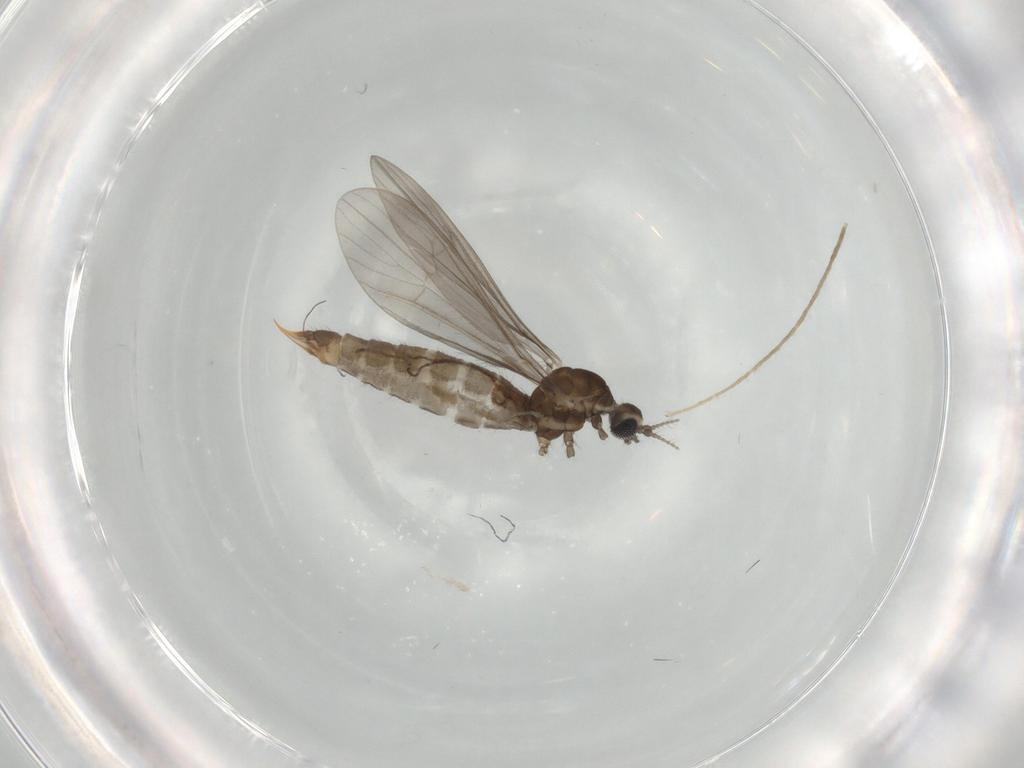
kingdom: Animalia
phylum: Arthropoda
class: Insecta
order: Diptera
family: Limoniidae
